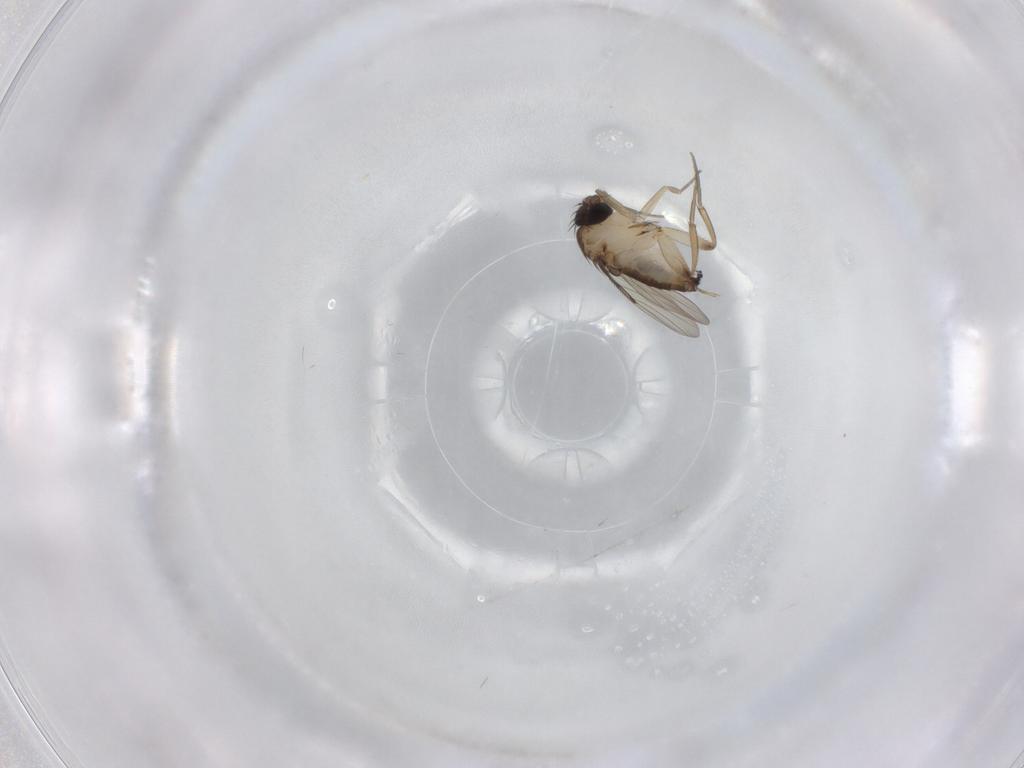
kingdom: Animalia
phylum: Arthropoda
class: Insecta
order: Diptera
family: Phoridae
